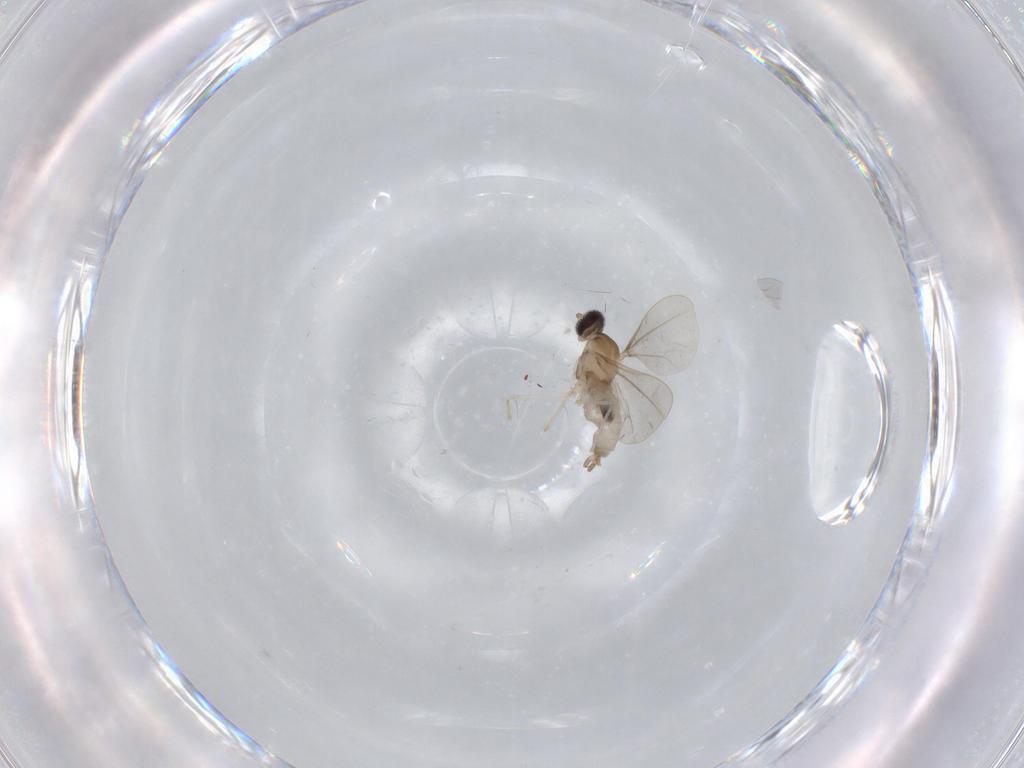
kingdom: Animalia
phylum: Arthropoda
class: Insecta
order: Diptera
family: Cecidomyiidae
